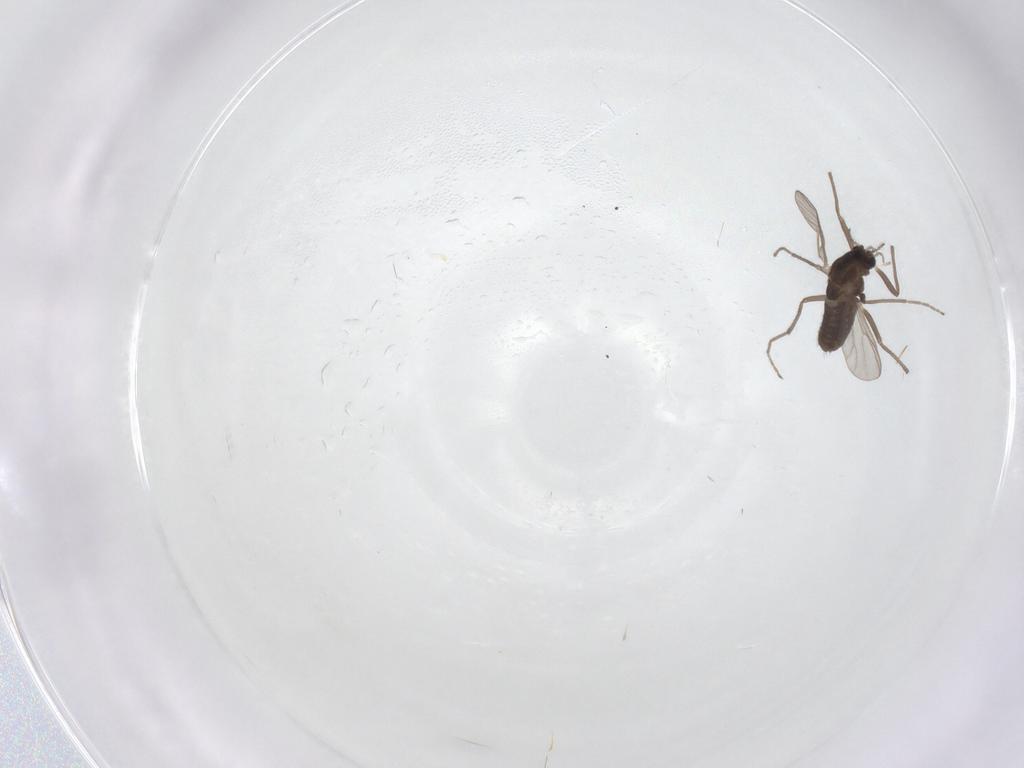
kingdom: Animalia
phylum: Arthropoda
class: Insecta
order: Diptera
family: Chironomidae
